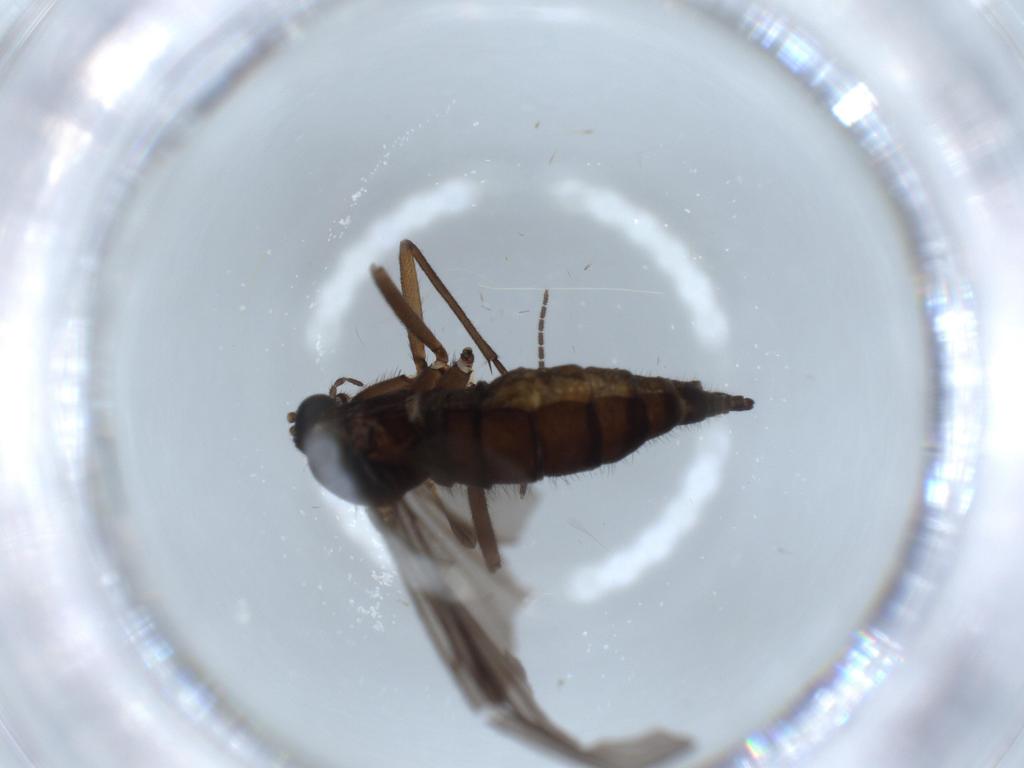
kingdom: Animalia
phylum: Arthropoda
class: Insecta
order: Diptera
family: Sciaridae
